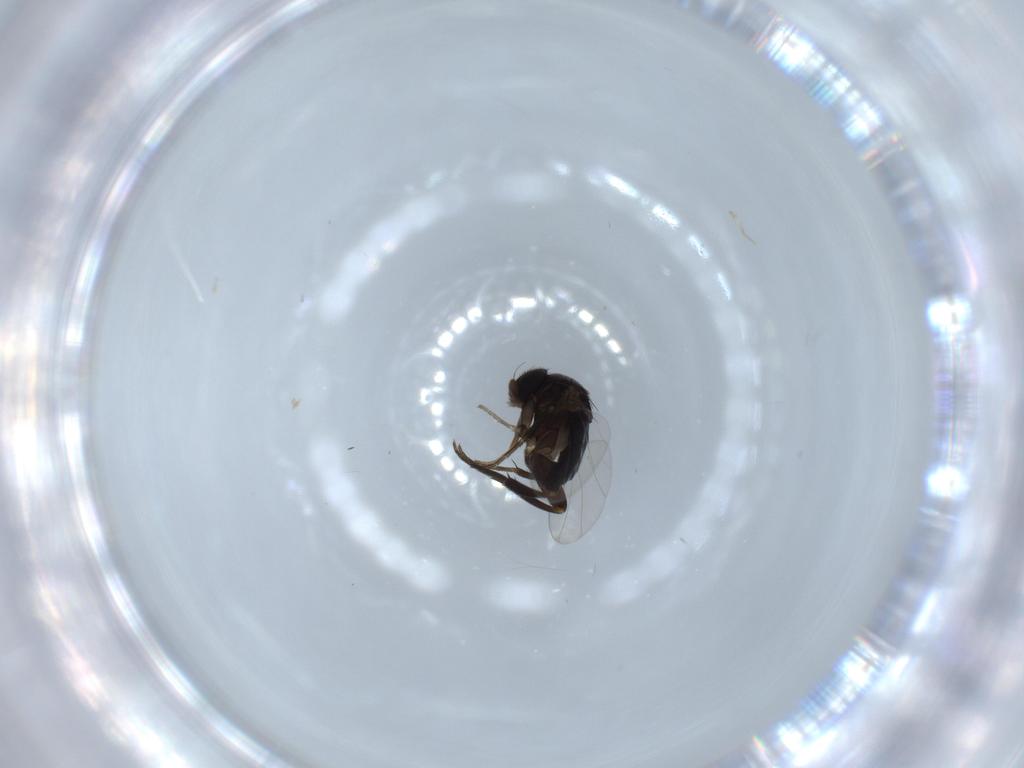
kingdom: Animalia
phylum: Arthropoda
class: Insecta
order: Diptera
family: Phoridae
